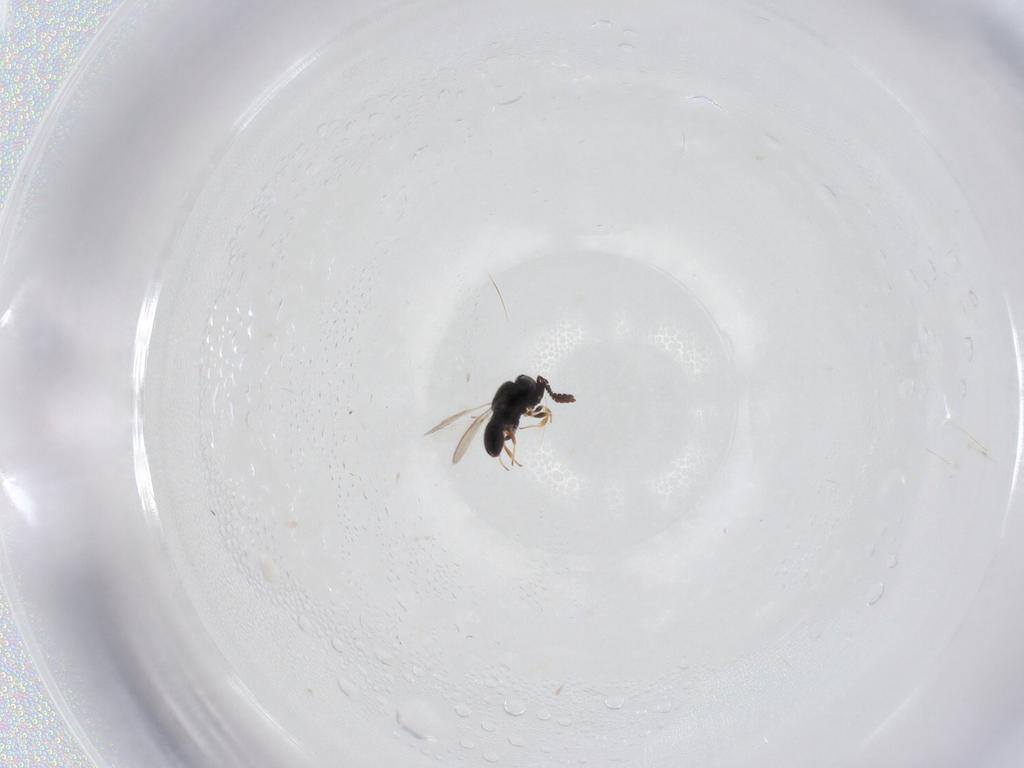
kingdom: Animalia
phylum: Arthropoda
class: Insecta
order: Hymenoptera
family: Scelionidae
